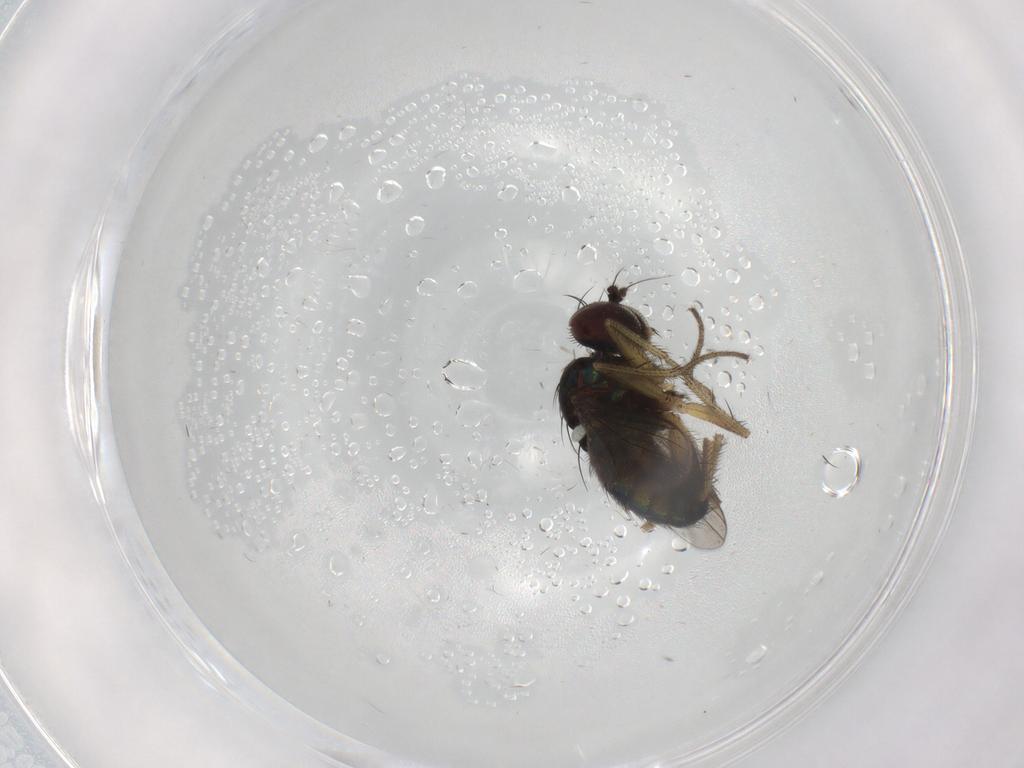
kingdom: Animalia
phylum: Arthropoda
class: Insecta
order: Diptera
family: Dolichopodidae
